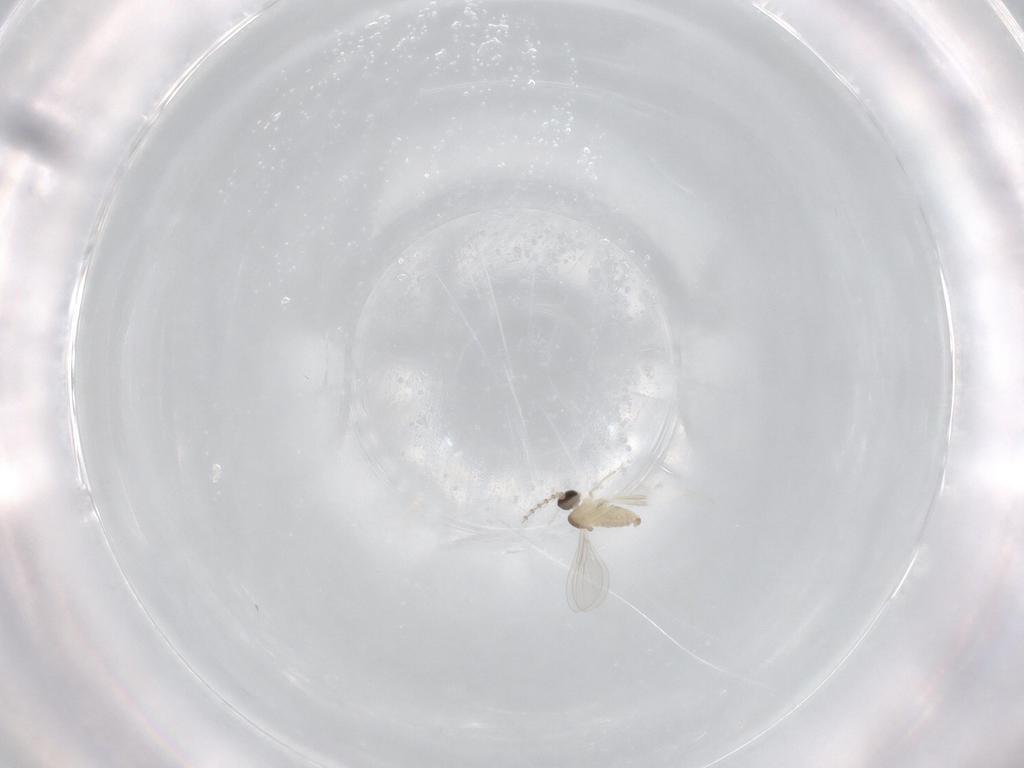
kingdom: Animalia
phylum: Arthropoda
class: Insecta
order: Diptera
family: Cecidomyiidae
